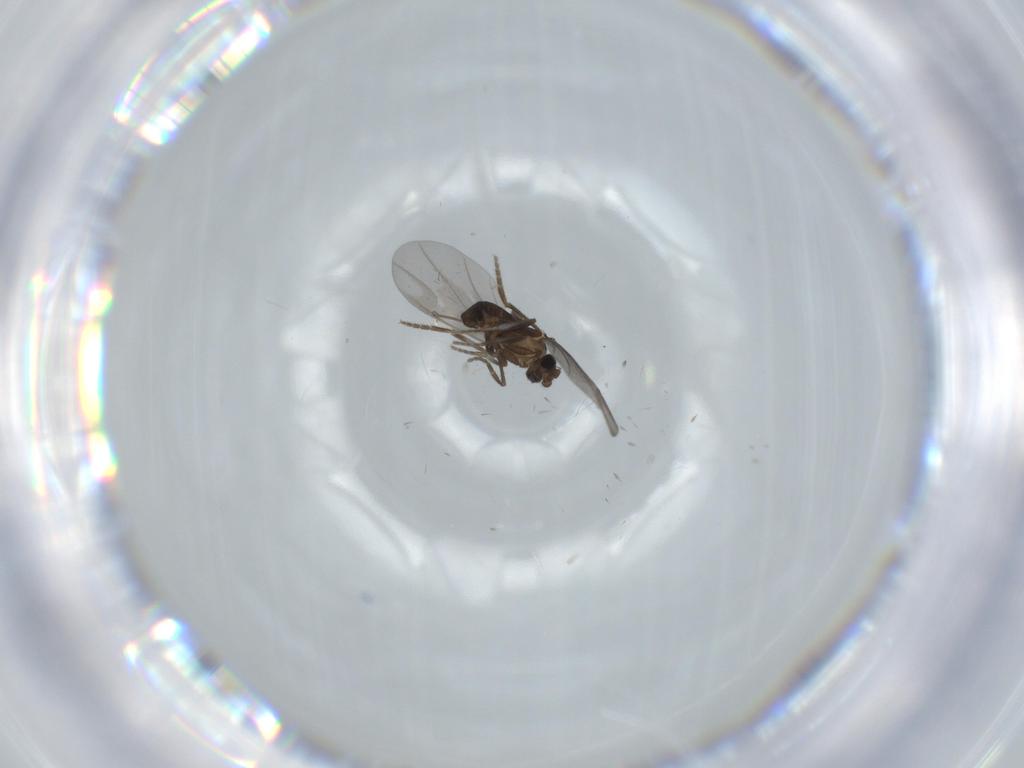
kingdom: Animalia
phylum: Arthropoda
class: Insecta
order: Diptera
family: Phoridae
